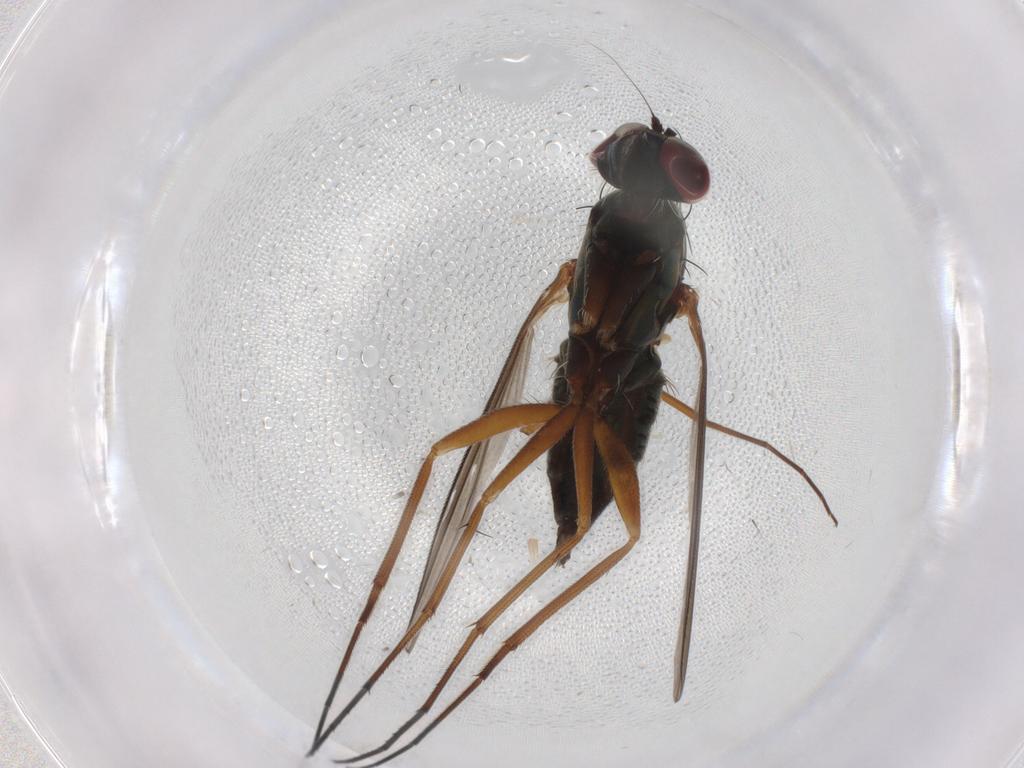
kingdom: Animalia
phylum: Arthropoda
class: Insecta
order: Diptera
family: Dolichopodidae
